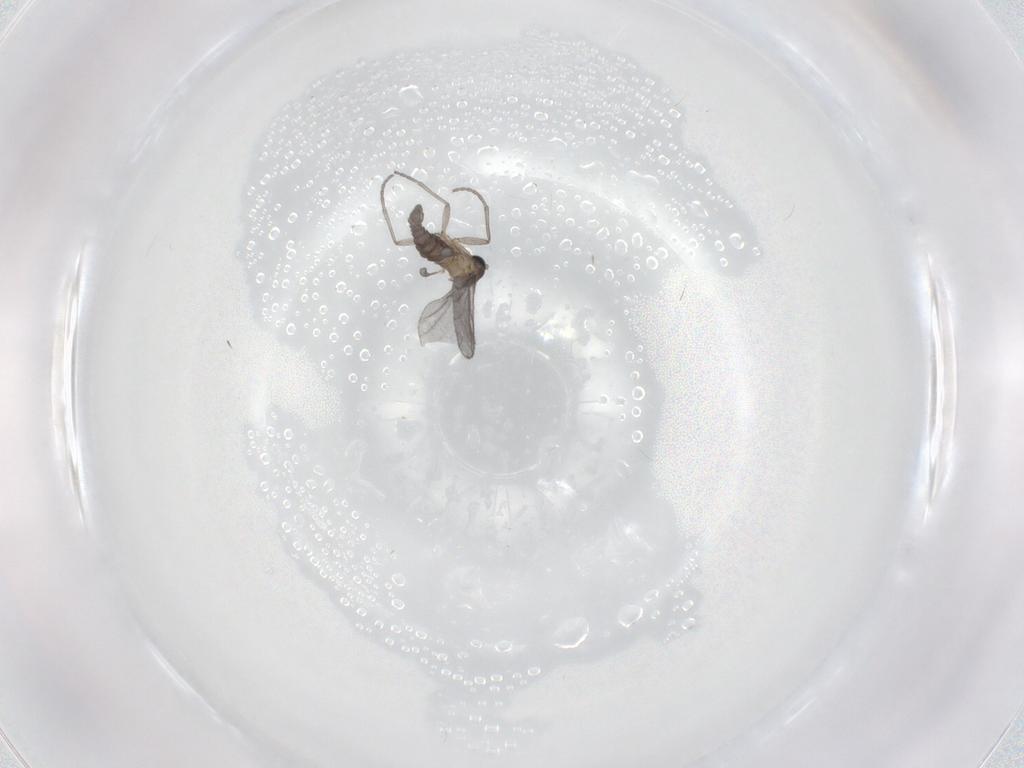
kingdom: Animalia
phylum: Arthropoda
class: Insecta
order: Diptera
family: Sciaridae
